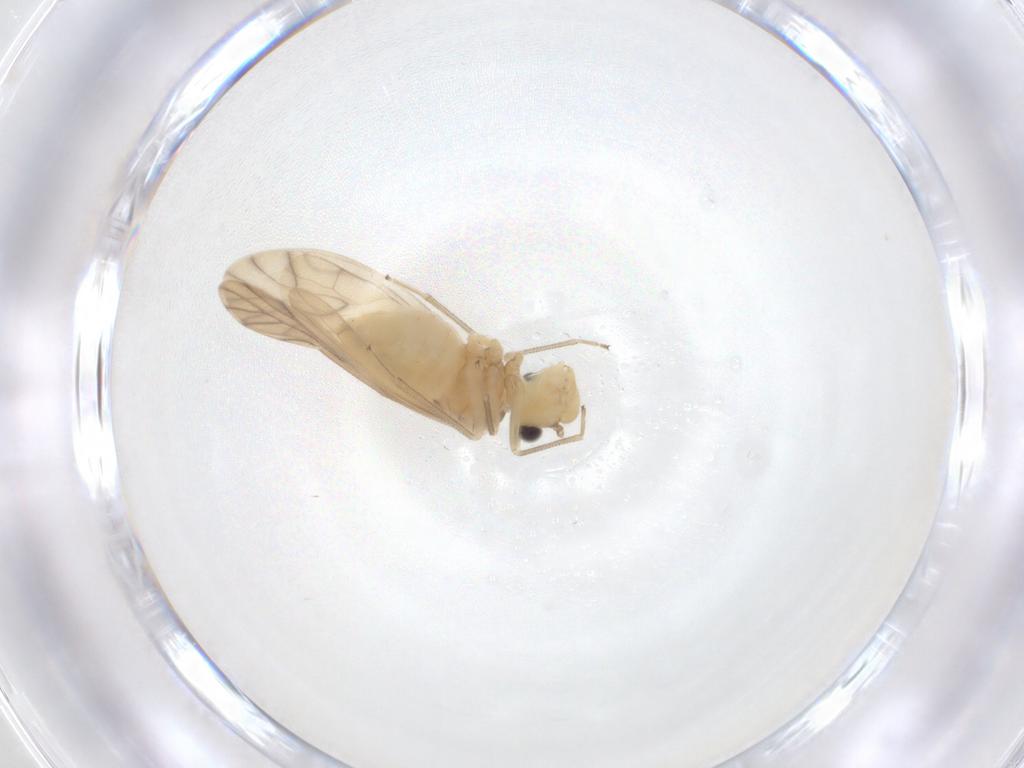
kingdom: Animalia
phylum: Arthropoda
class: Insecta
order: Psocodea
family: Caeciliusidae
